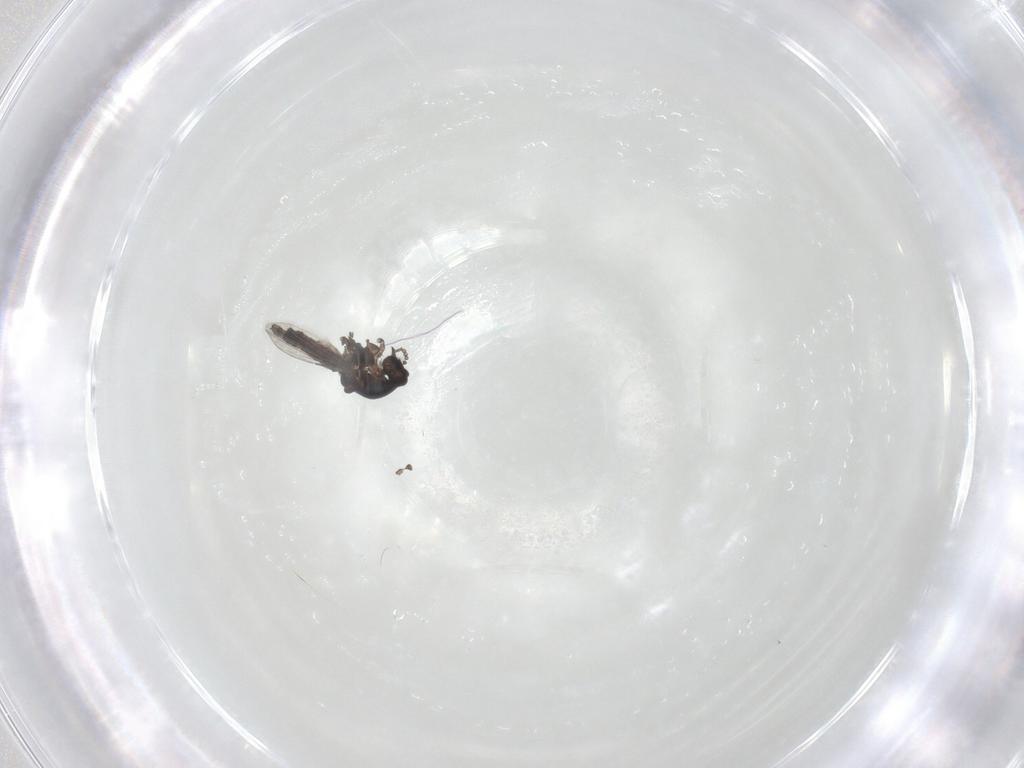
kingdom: Animalia
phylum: Arthropoda
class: Insecta
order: Diptera
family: Ceratopogonidae
